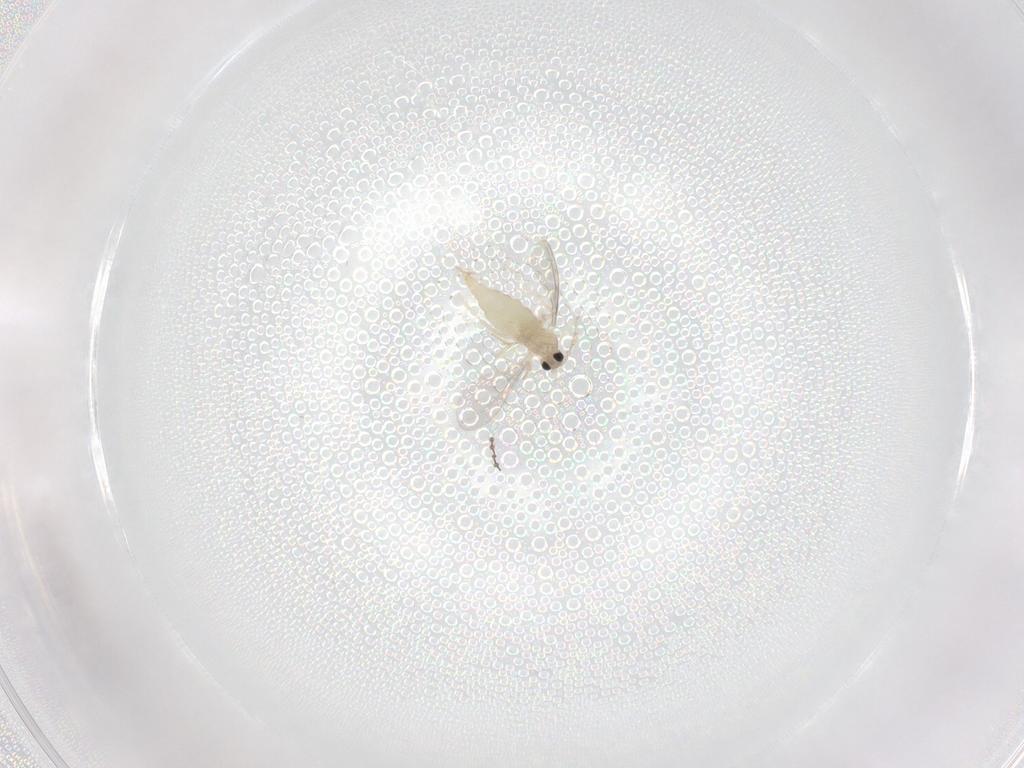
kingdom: Animalia
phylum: Arthropoda
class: Insecta
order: Diptera
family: Cecidomyiidae
